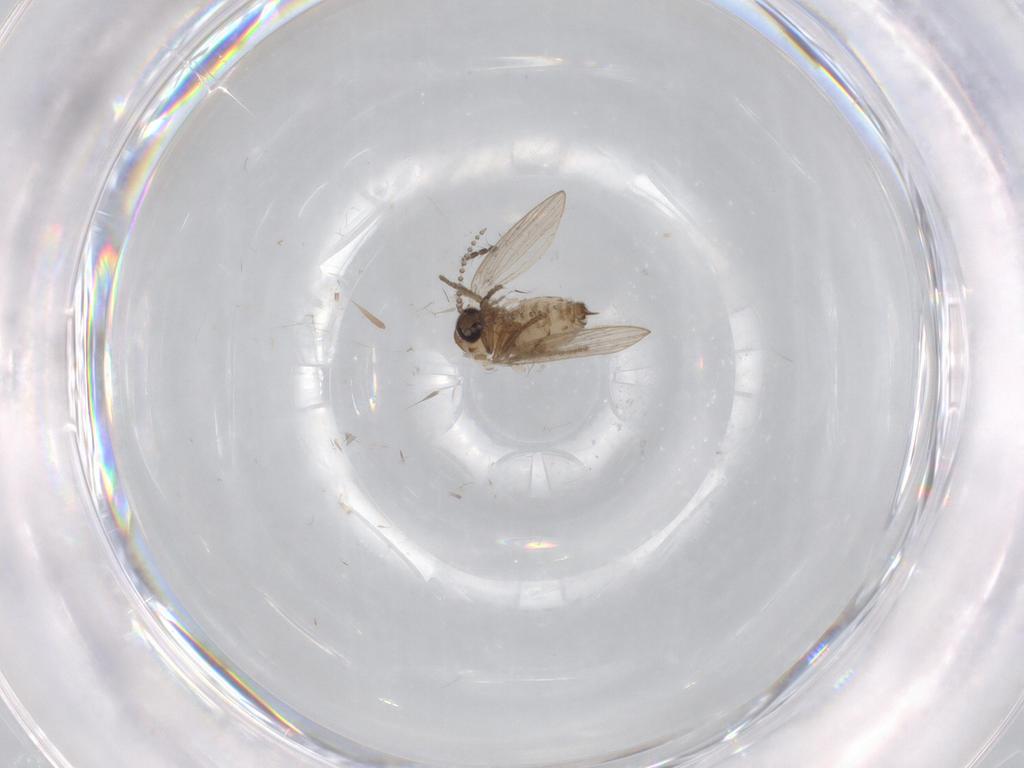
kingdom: Animalia
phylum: Arthropoda
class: Insecta
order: Diptera
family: Psychodidae
